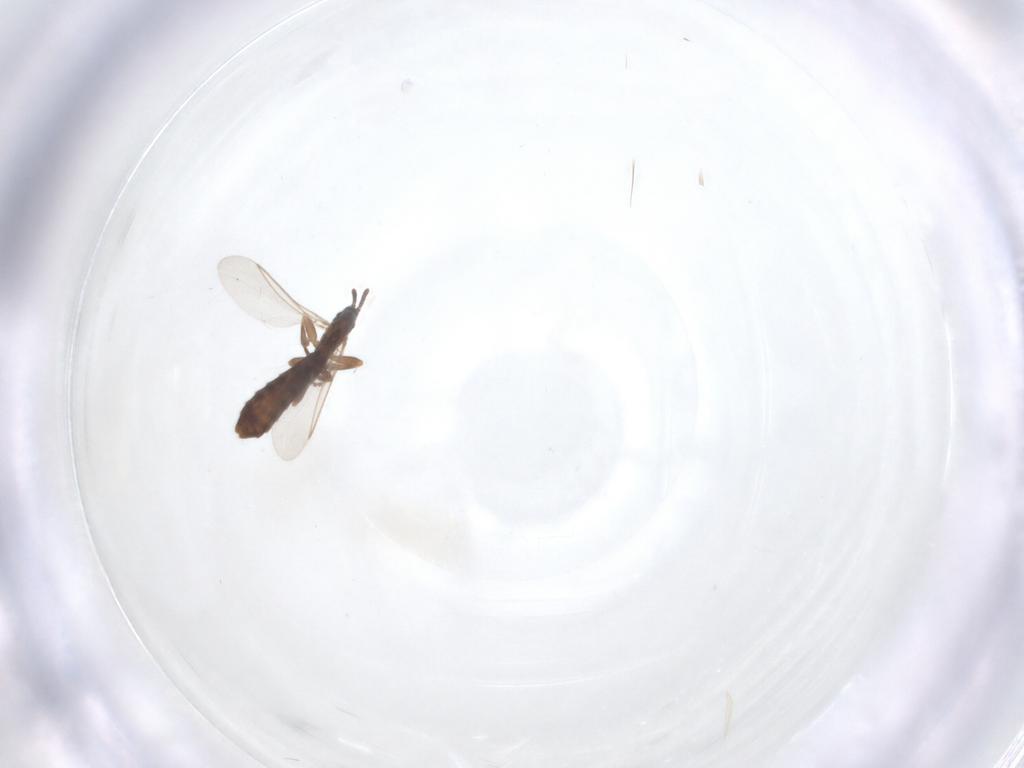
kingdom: Animalia
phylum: Arthropoda
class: Insecta
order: Diptera
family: Scatopsidae
